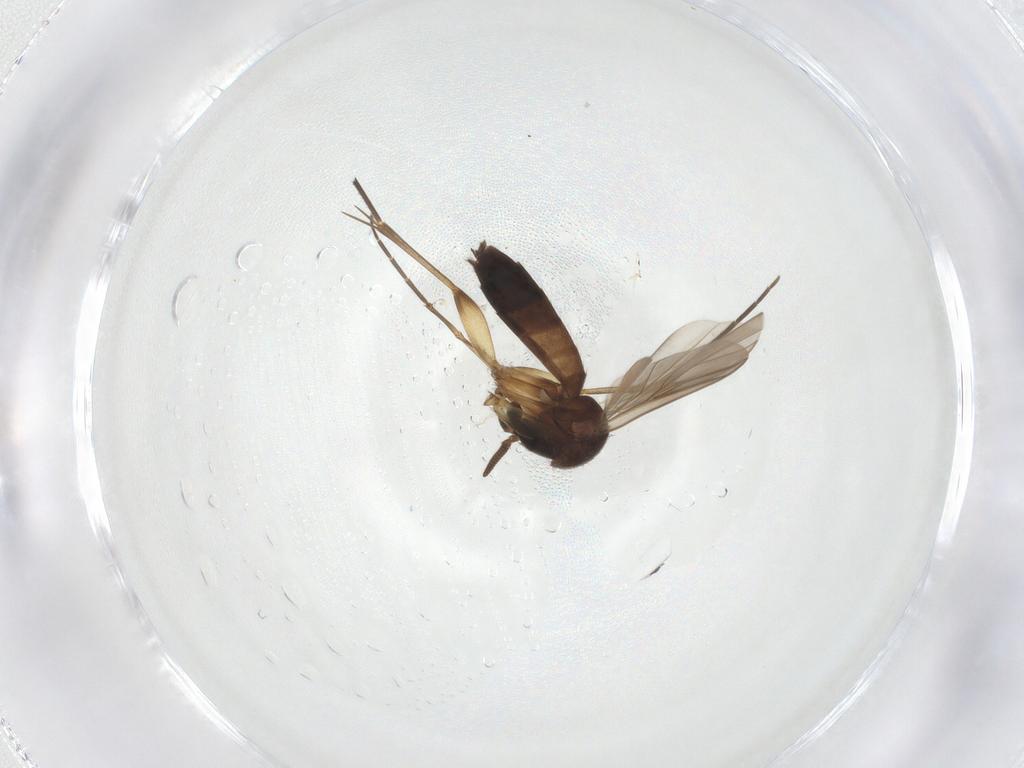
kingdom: Animalia
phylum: Arthropoda
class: Insecta
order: Diptera
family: Mycetophilidae
